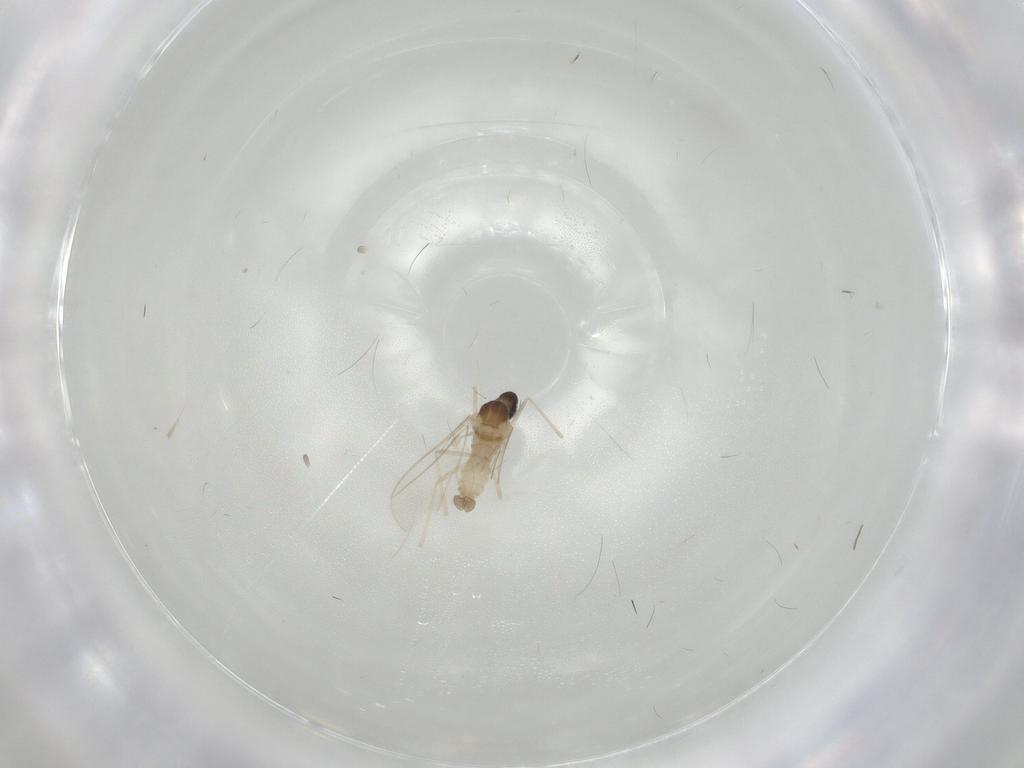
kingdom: Animalia
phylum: Arthropoda
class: Insecta
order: Diptera
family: Cecidomyiidae
